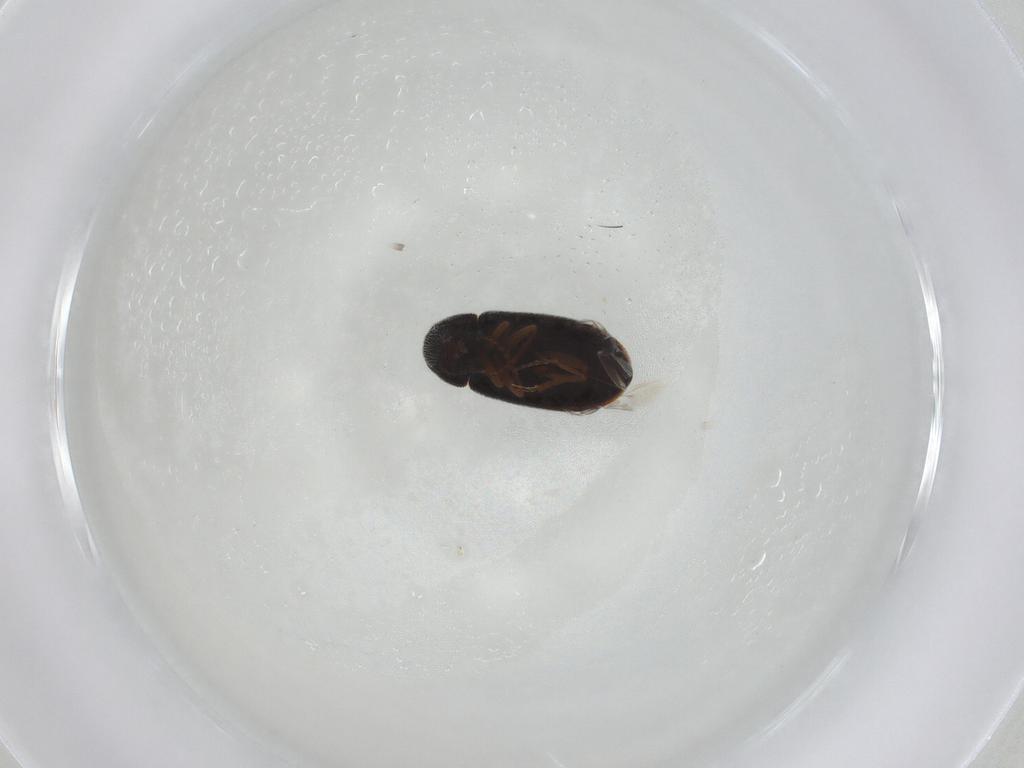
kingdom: Animalia
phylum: Arthropoda
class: Insecta
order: Coleoptera
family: Rhadalidae
